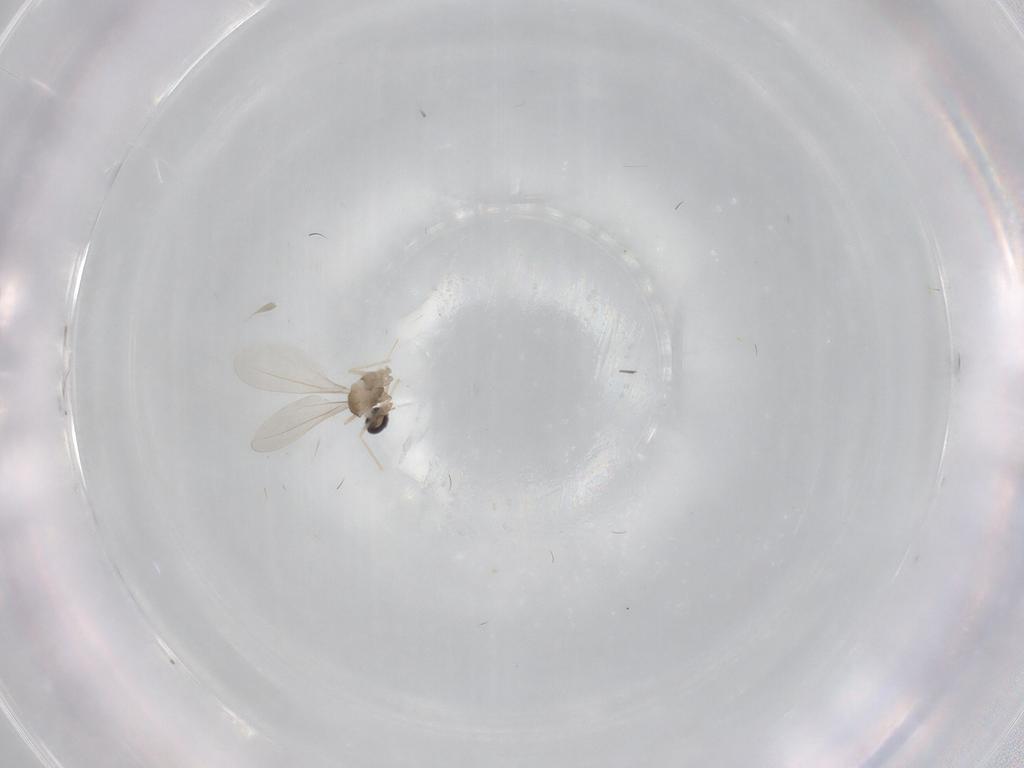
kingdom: Animalia
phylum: Arthropoda
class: Insecta
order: Diptera
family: Cecidomyiidae
